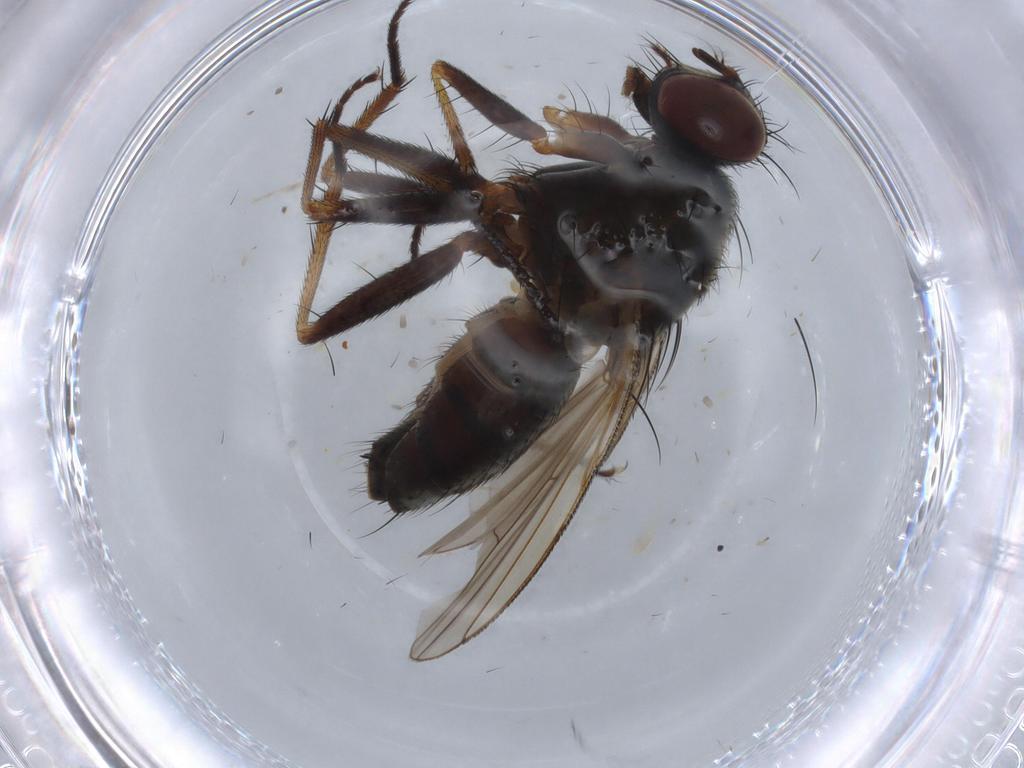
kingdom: Animalia
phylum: Arthropoda
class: Insecta
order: Diptera
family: Muscidae
